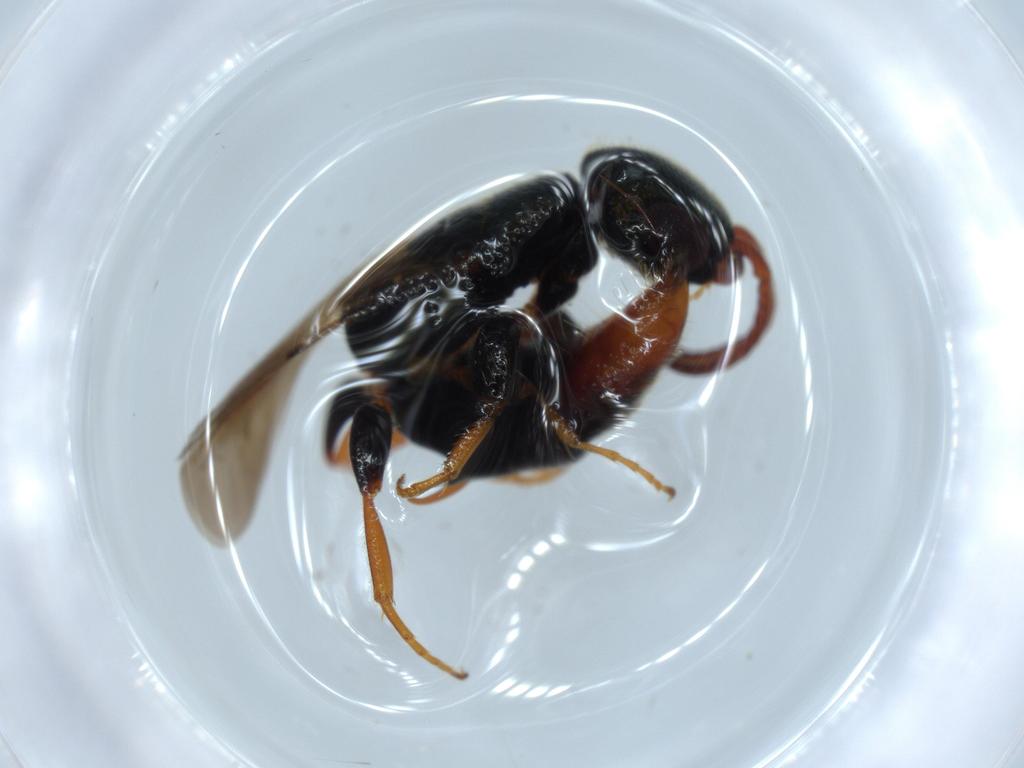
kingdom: Animalia
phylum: Arthropoda
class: Insecta
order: Hymenoptera
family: Bethylidae
